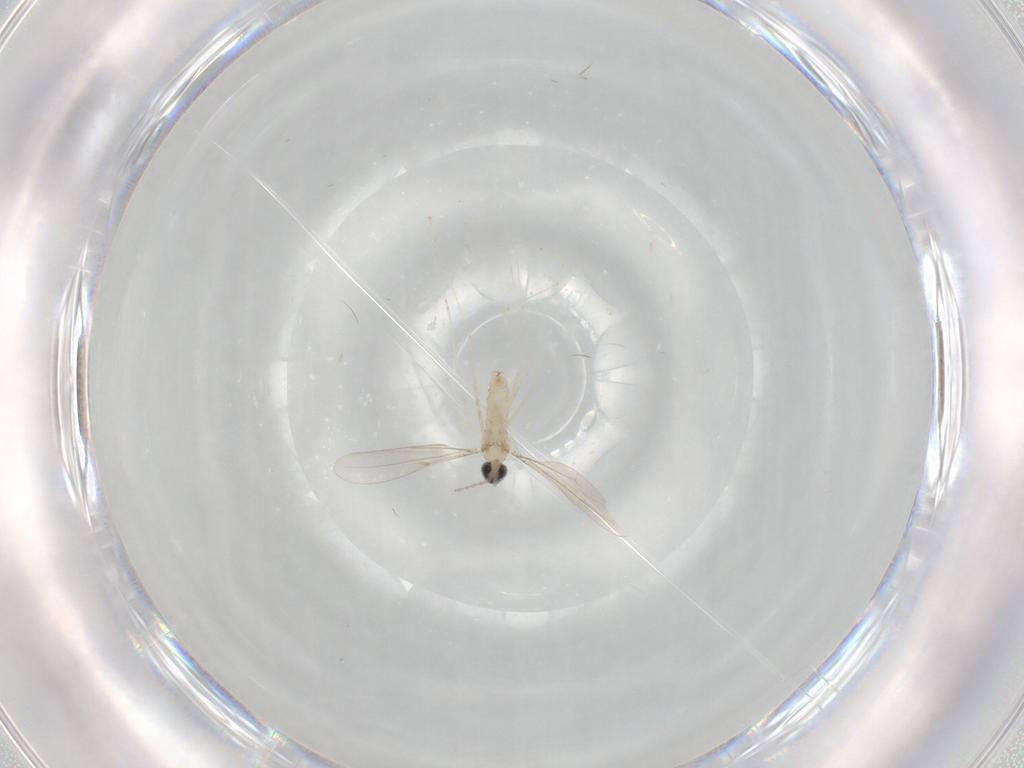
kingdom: Animalia
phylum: Arthropoda
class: Insecta
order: Diptera
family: Cecidomyiidae
